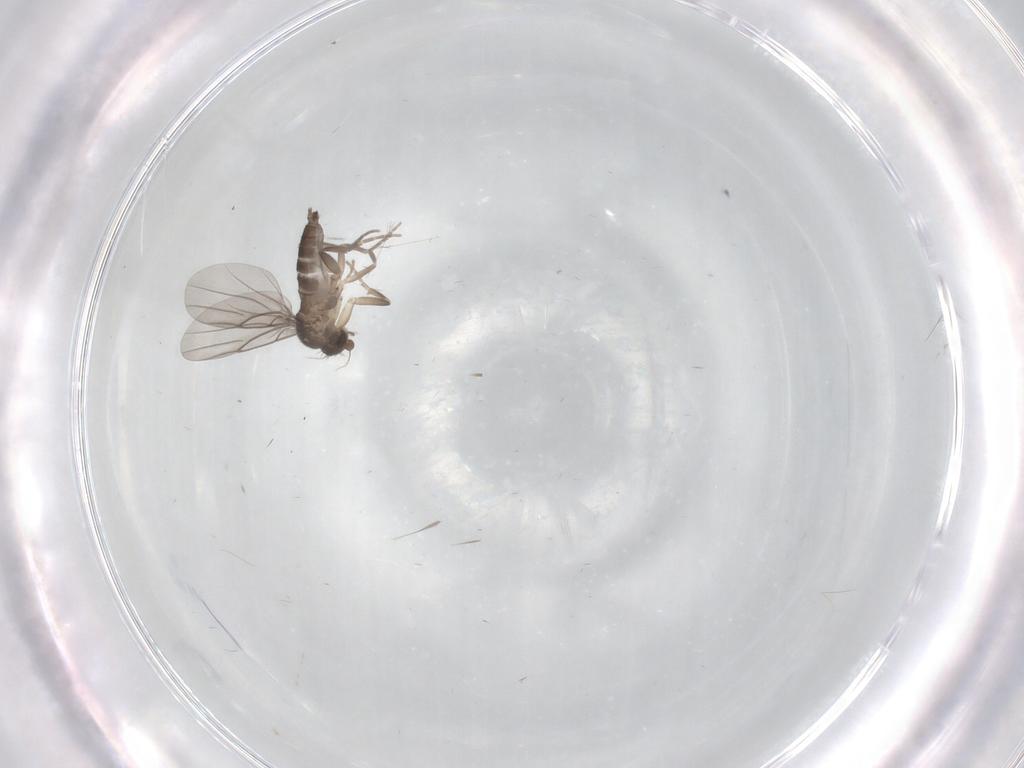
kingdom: Animalia
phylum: Arthropoda
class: Insecta
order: Diptera
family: Phoridae
